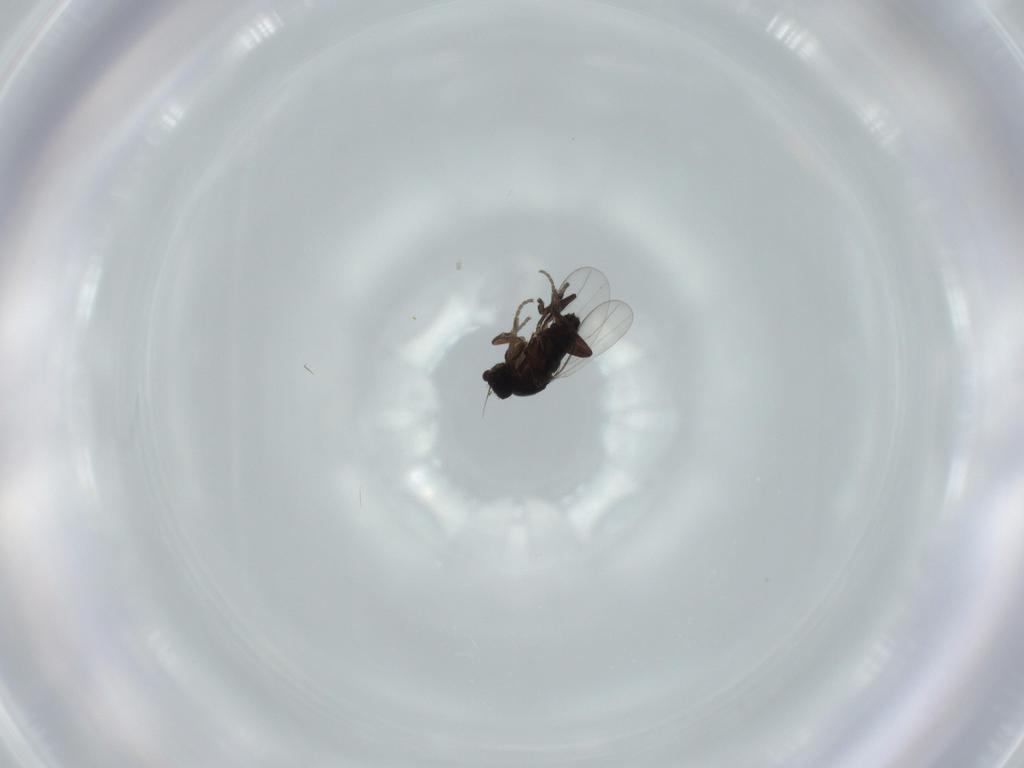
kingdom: Animalia
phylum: Arthropoda
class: Insecta
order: Diptera
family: Phoridae
